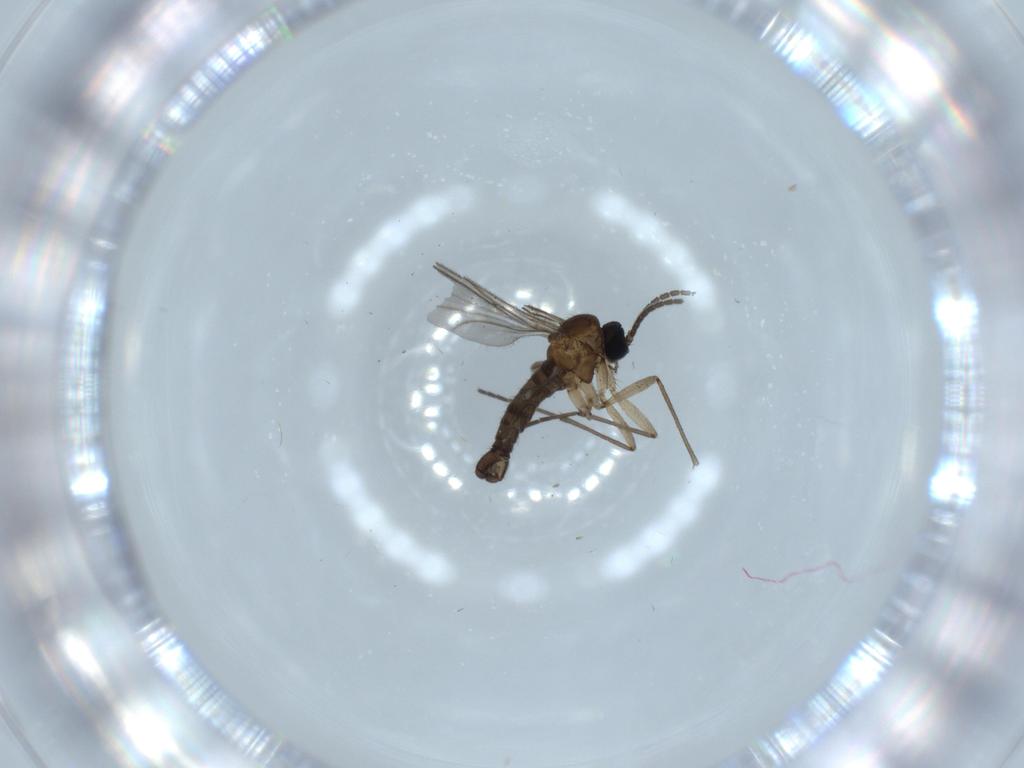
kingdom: Animalia
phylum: Arthropoda
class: Insecta
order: Diptera
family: Sciaridae
